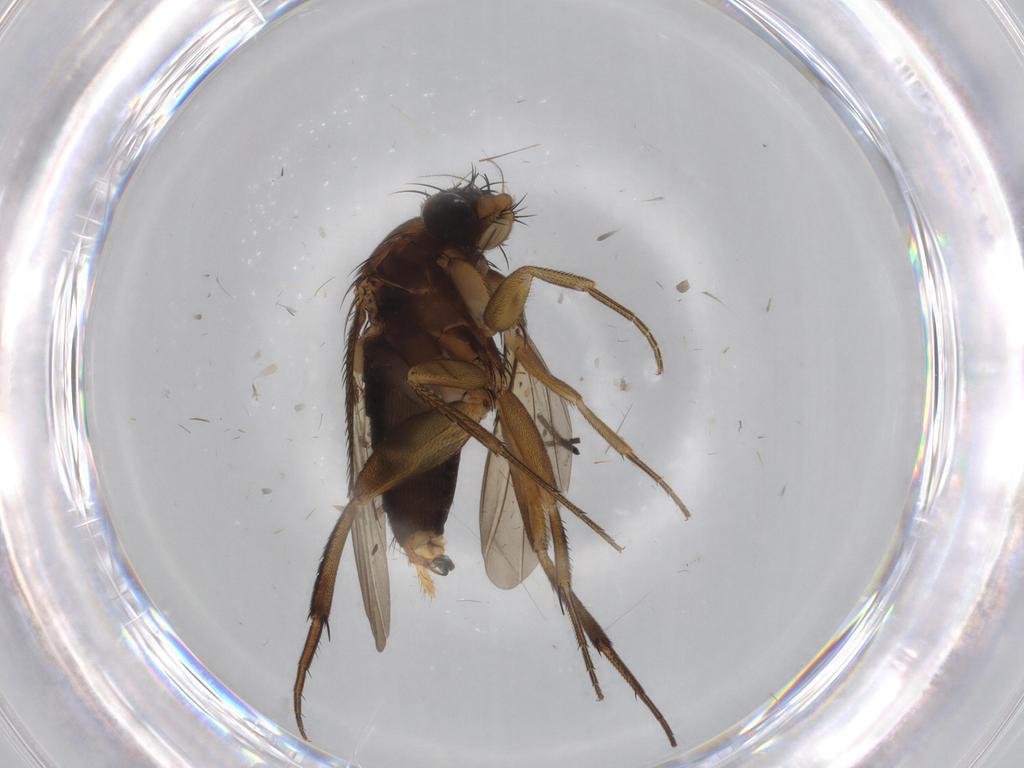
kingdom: Animalia
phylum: Arthropoda
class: Insecta
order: Diptera
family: Phoridae
